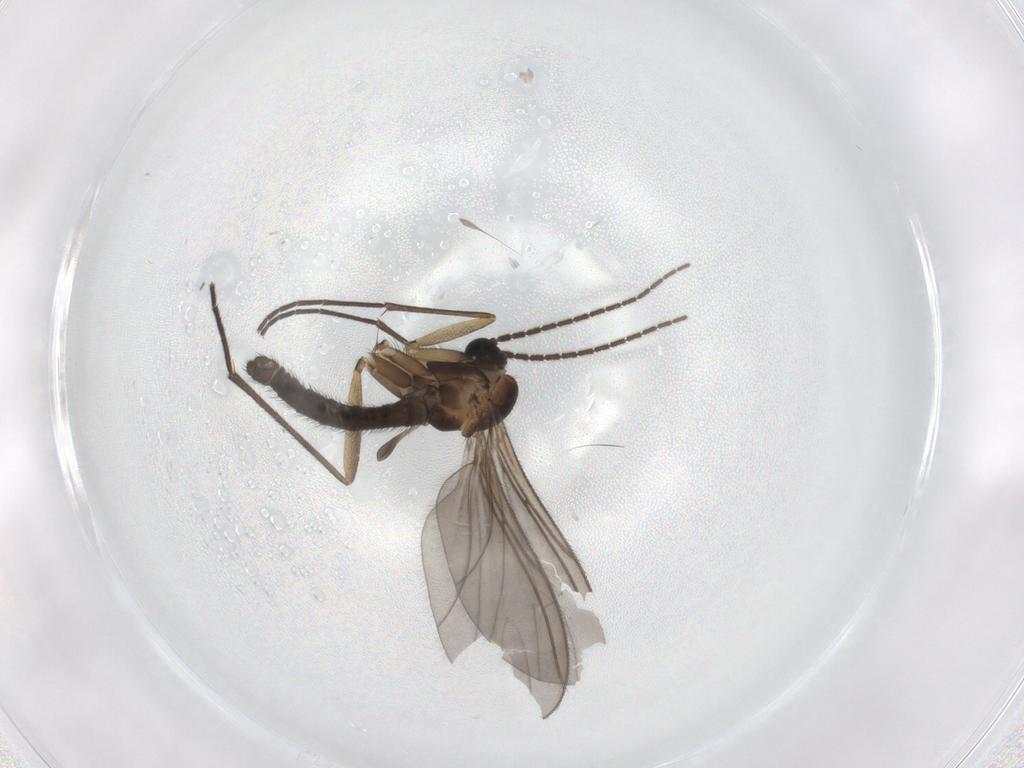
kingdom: Animalia
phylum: Arthropoda
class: Insecta
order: Diptera
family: Sciaridae
